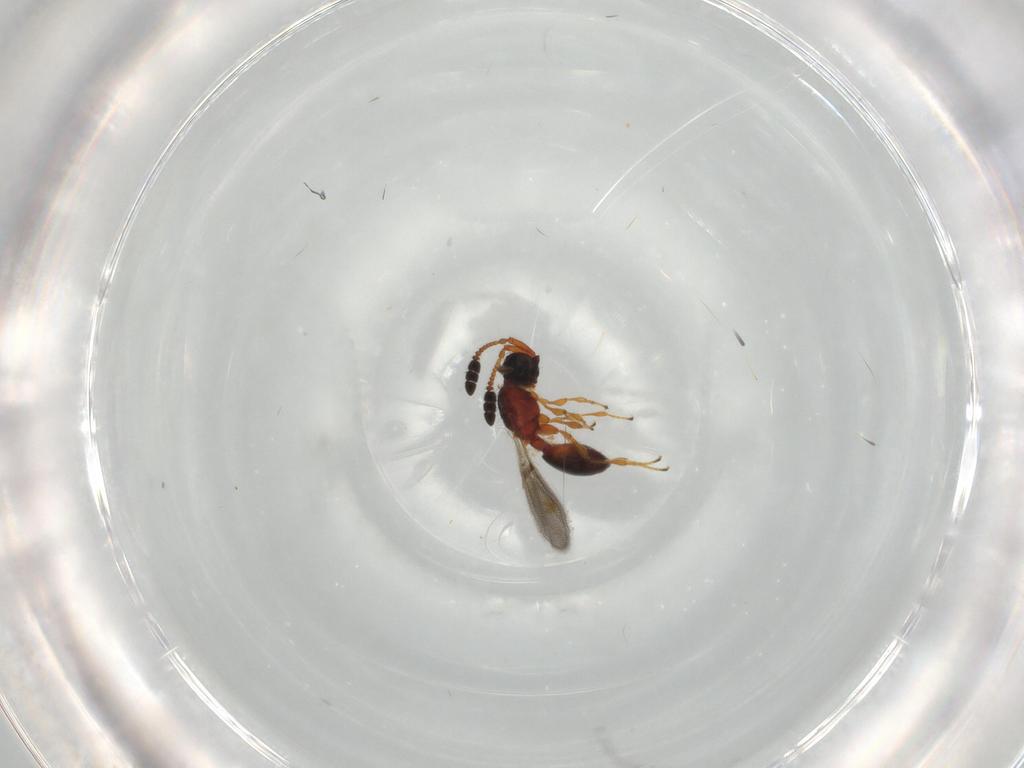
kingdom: Animalia
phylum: Arthropoda
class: Insecta
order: Hymenoptera
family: Diapriidae
